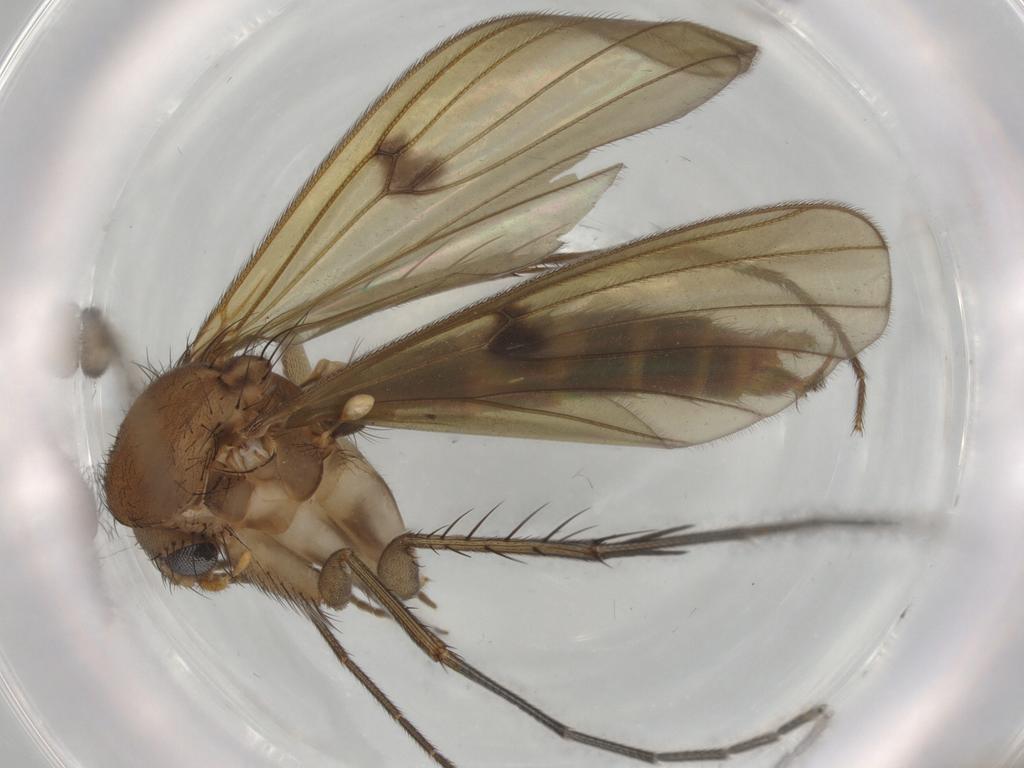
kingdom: Animalia
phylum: Arthropoda
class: Insecta
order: Diptera
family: Mycetophilidae
